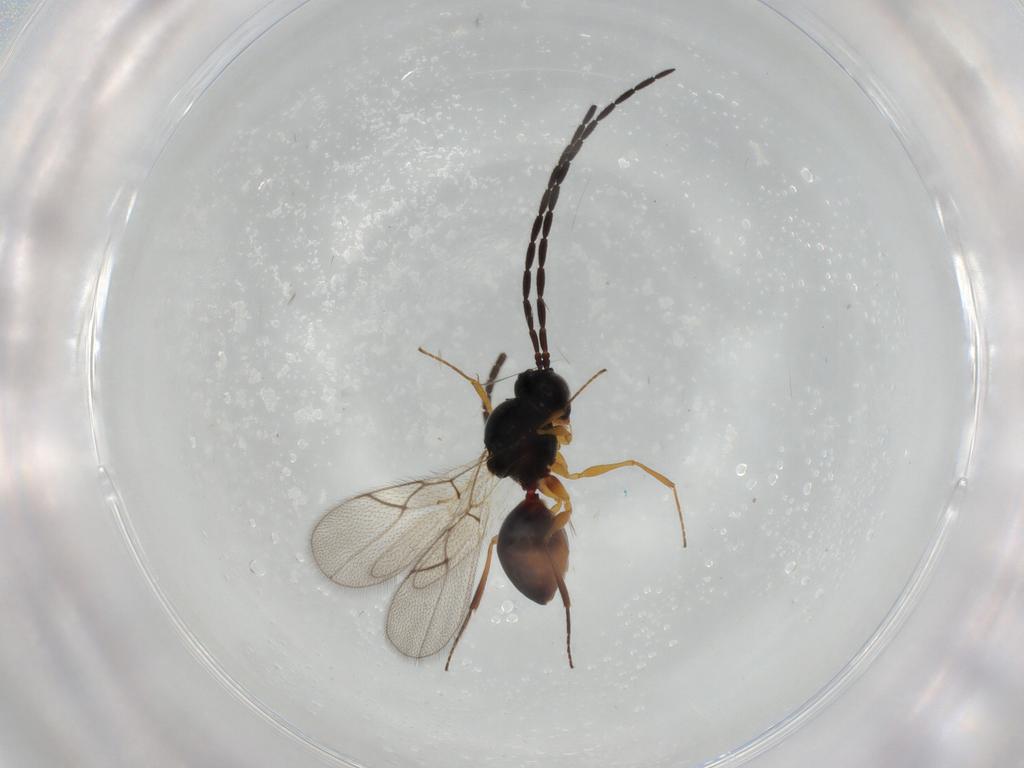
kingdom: Animalia
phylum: Arthropoda
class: Insecta
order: Hymenoptera
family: Scelionidae
